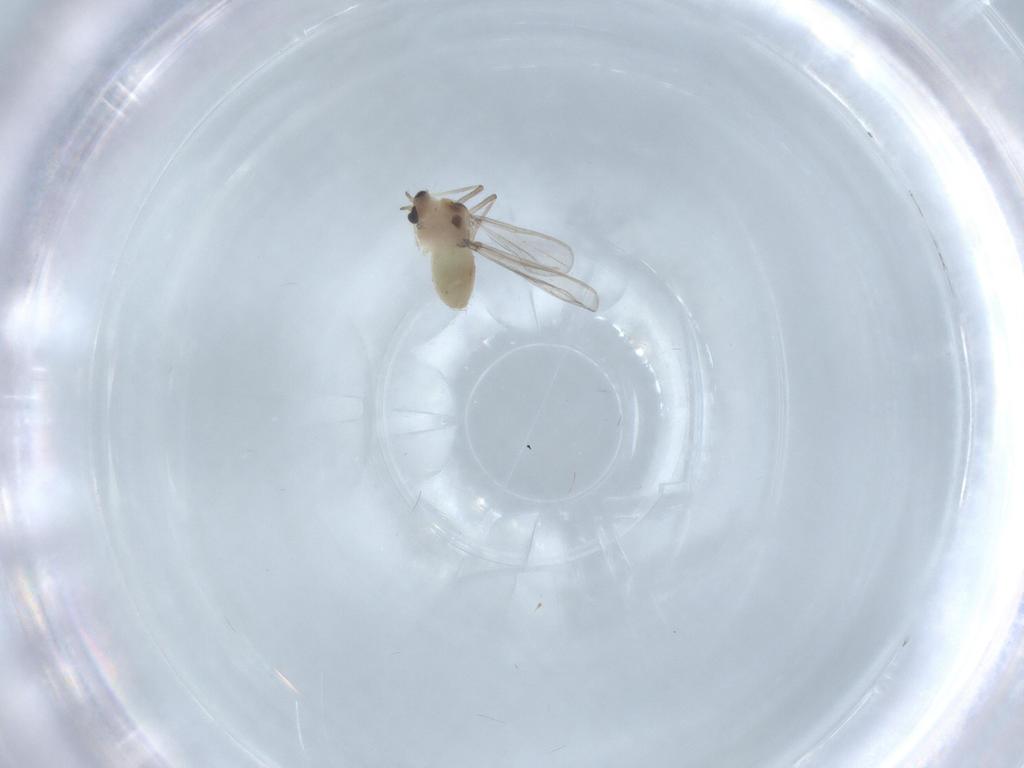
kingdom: Animalia
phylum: Arthropoda
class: Insecta
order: Diptera
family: Chironomidae
